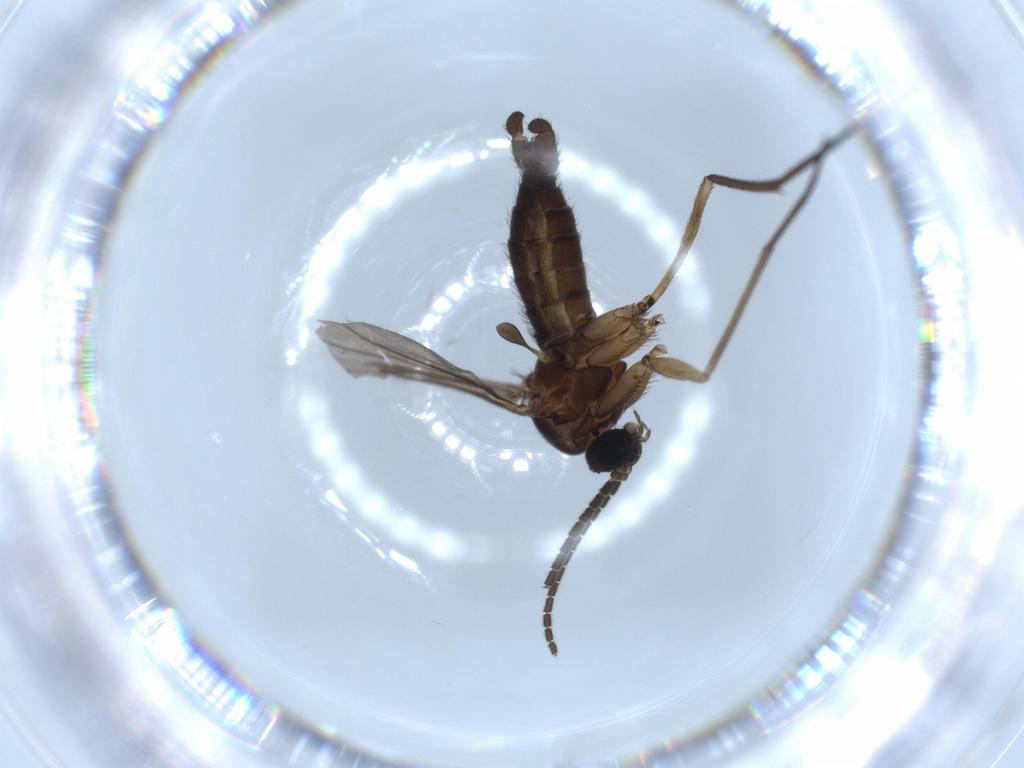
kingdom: Animalia
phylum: Arthropoda
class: Insecta
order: Diptera
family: Sciaridae
